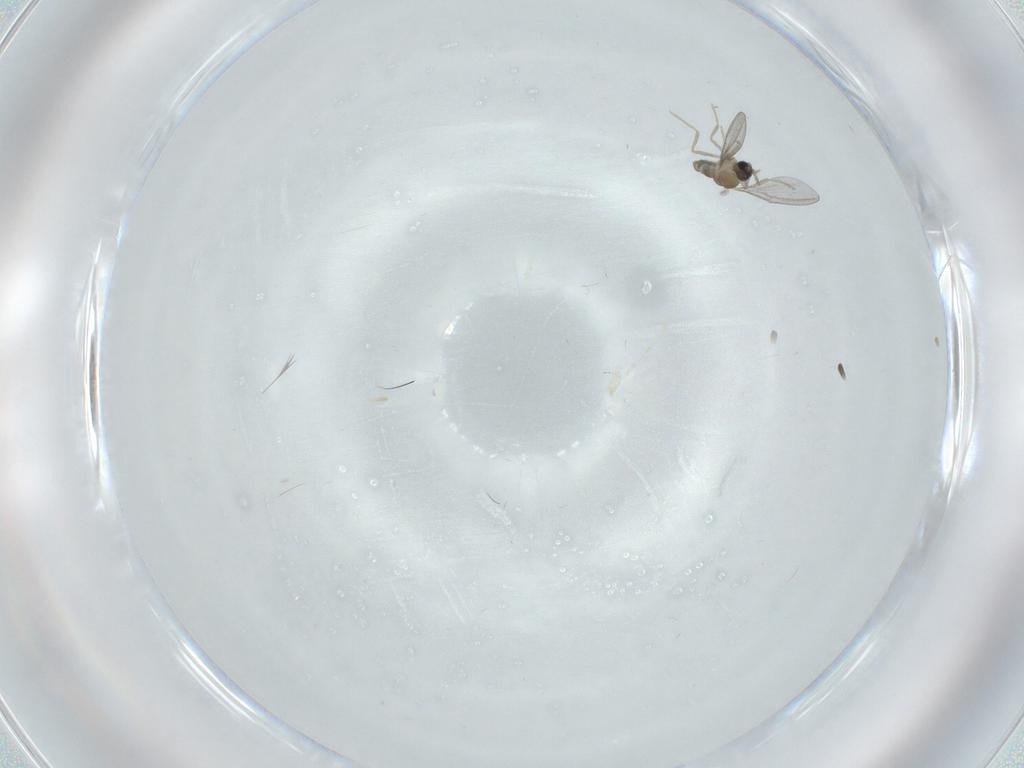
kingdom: Animalia
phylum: Arthropoda
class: Insecta
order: Diptera
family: Cecidomyiidae
